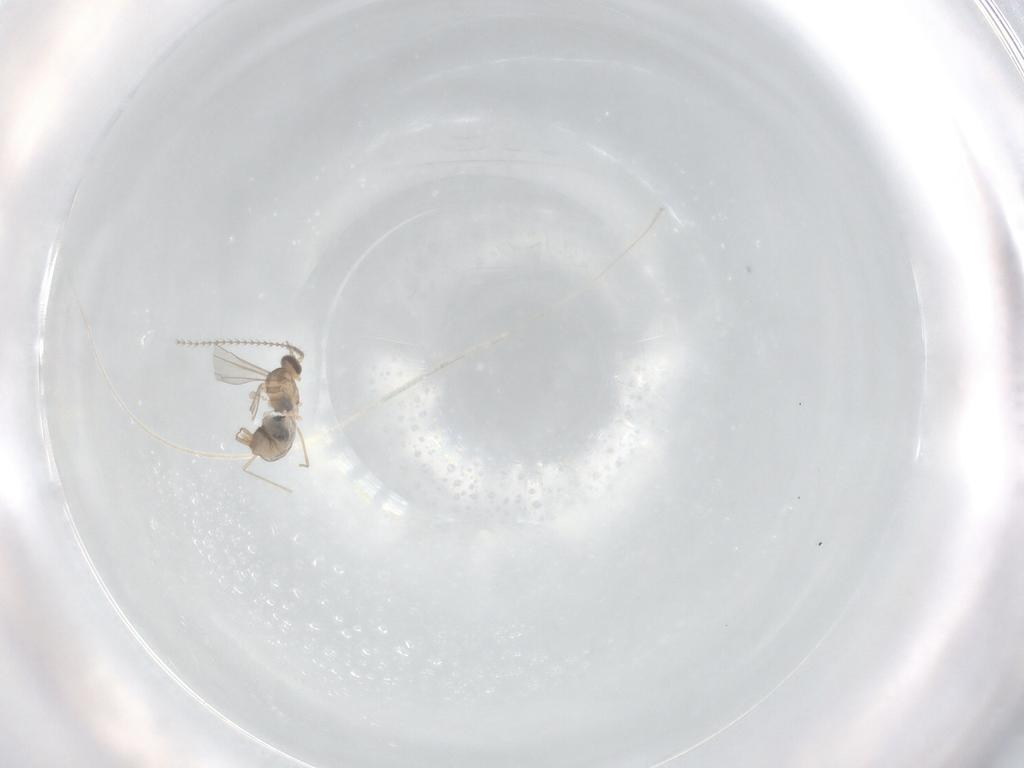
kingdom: Animalia
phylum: Arthropoda
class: Insecta
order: Diptera
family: Cecidomyiidae
